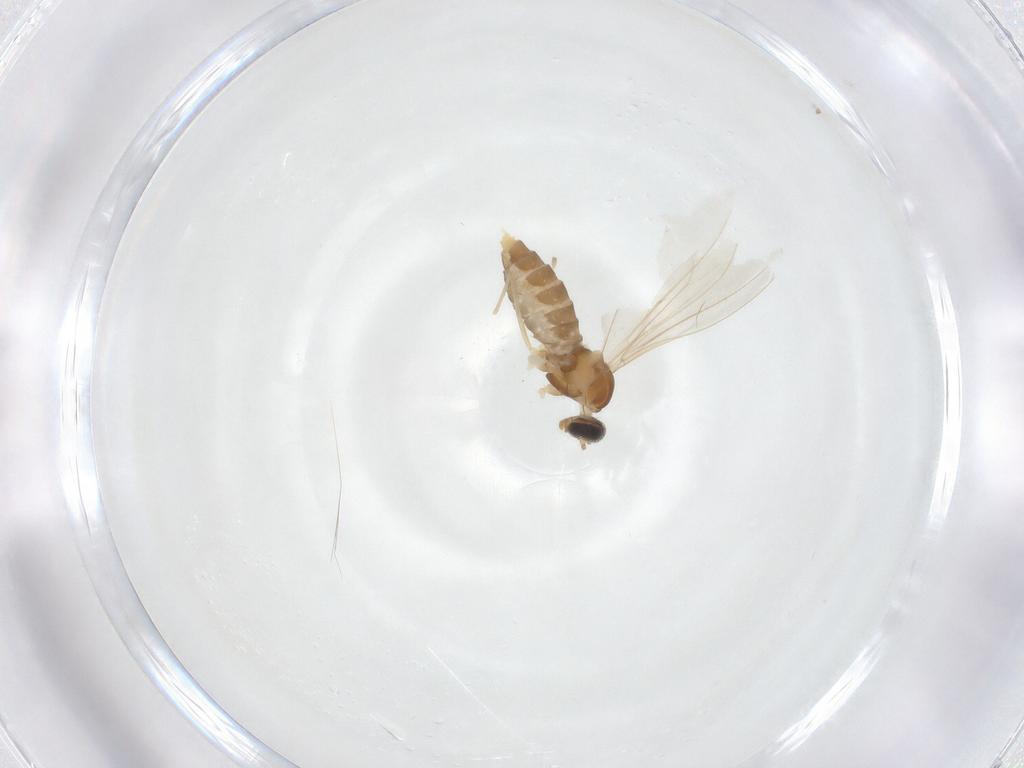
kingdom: Animalia
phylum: Arthropoda
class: Insecta
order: Diptera
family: Cecidomyiidae
